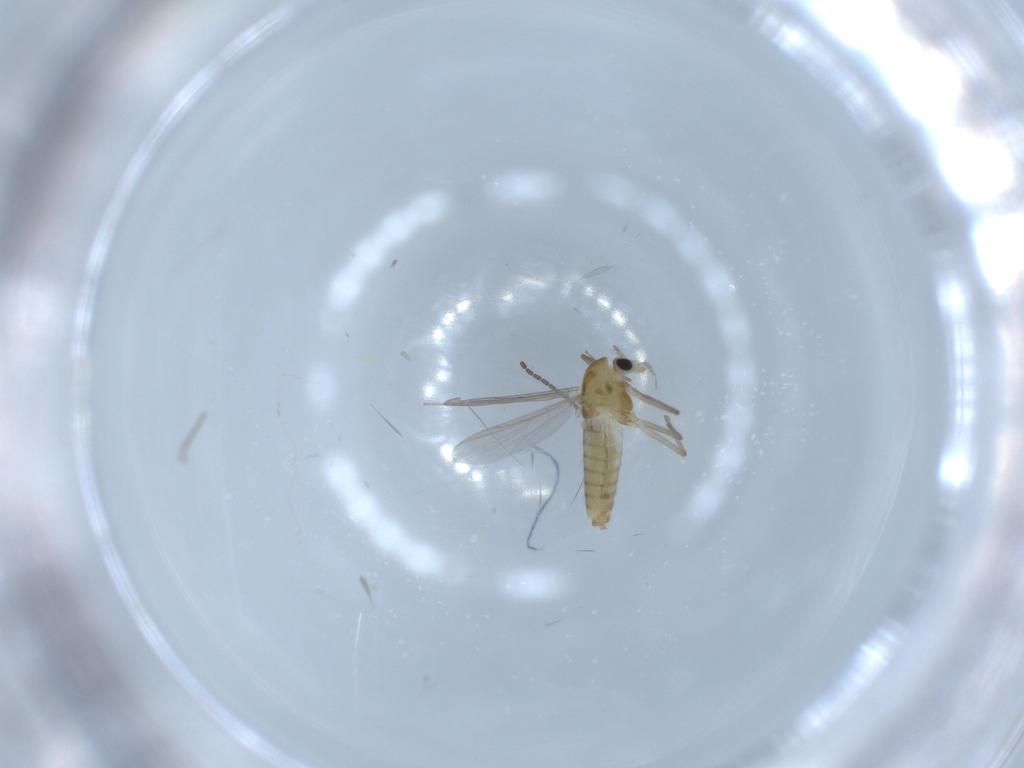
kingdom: Animalia
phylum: Arthropoda
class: Insecta
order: Diptera
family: Chironomidae
